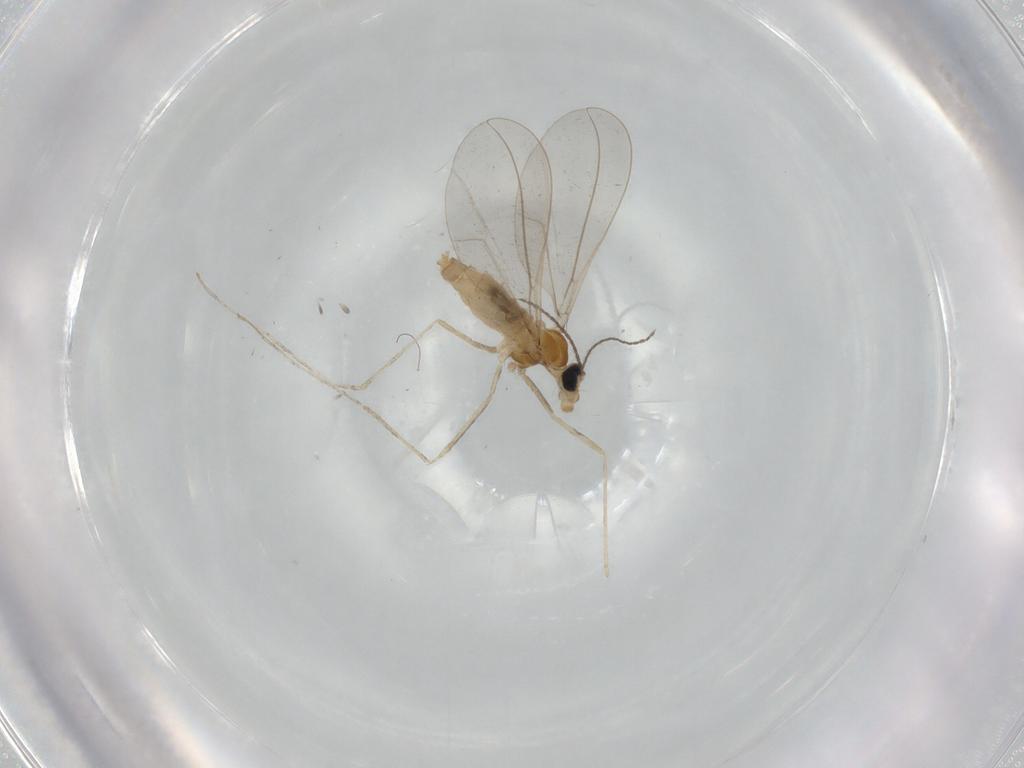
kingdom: Animalia
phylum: Arthropoda
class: Insecta
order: Diptera
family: Cecidomyiidae
